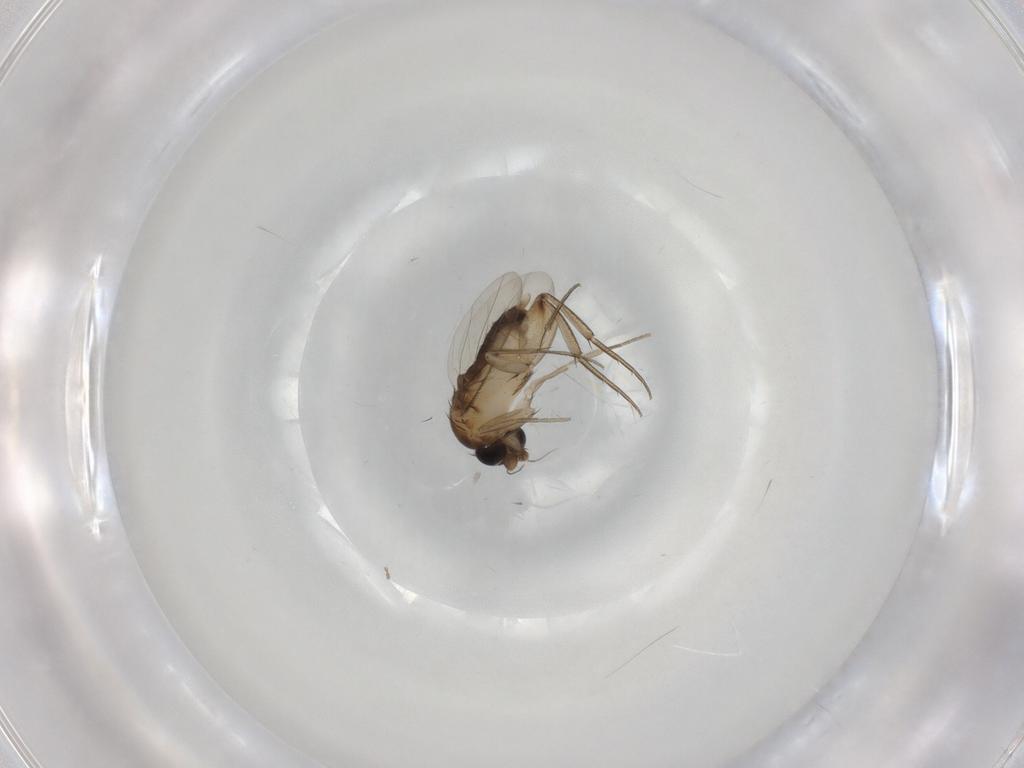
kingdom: Animalia
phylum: Arthropoda
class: Insecta
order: Diptera
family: Phoridae
